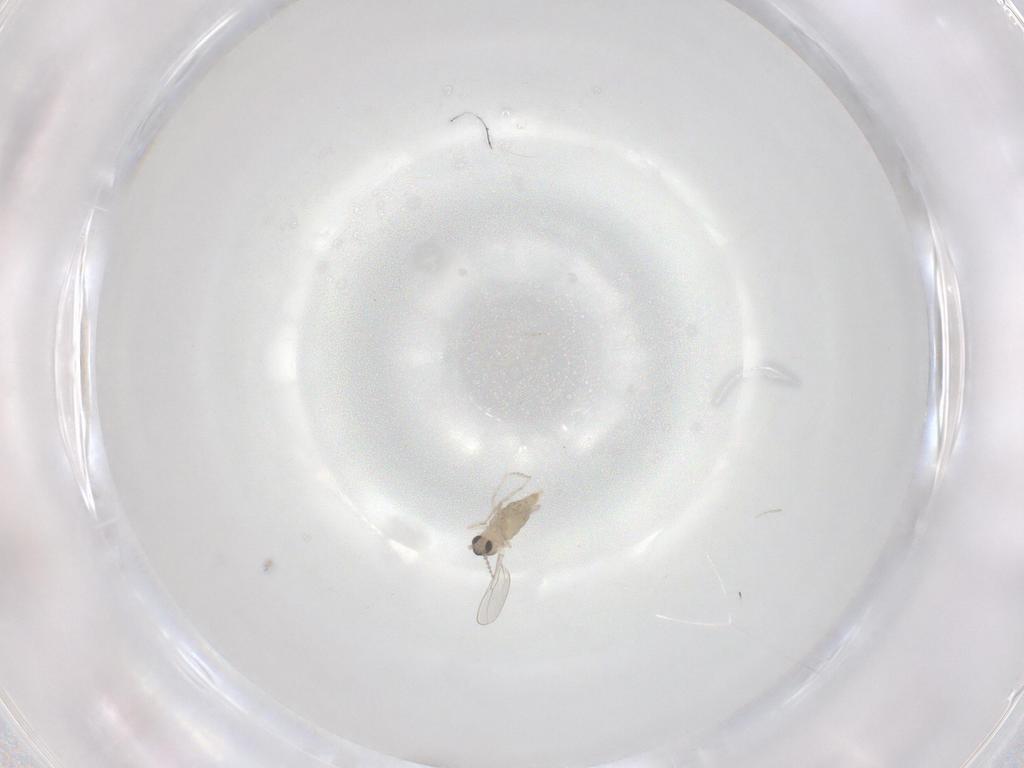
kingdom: Animalia
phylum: Arthropoda
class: Insecta
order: Diptera
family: Cecidomyiidae
